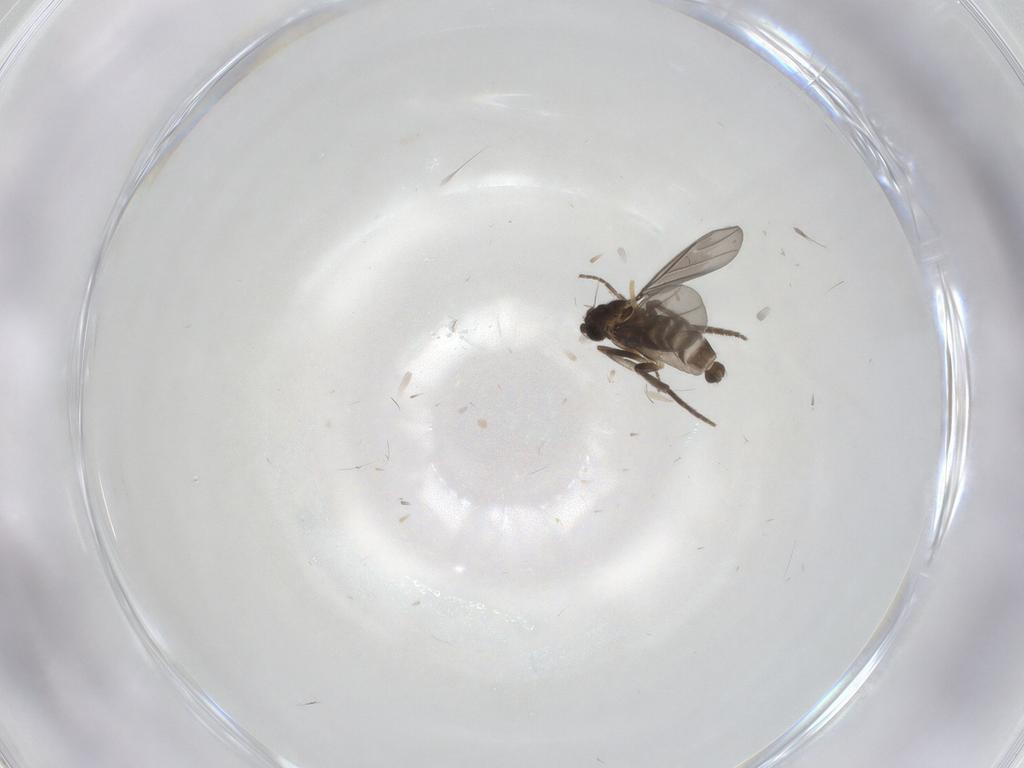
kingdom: Animalia
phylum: Arthropoda
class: Insecta
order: Diptera
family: Phoridae
